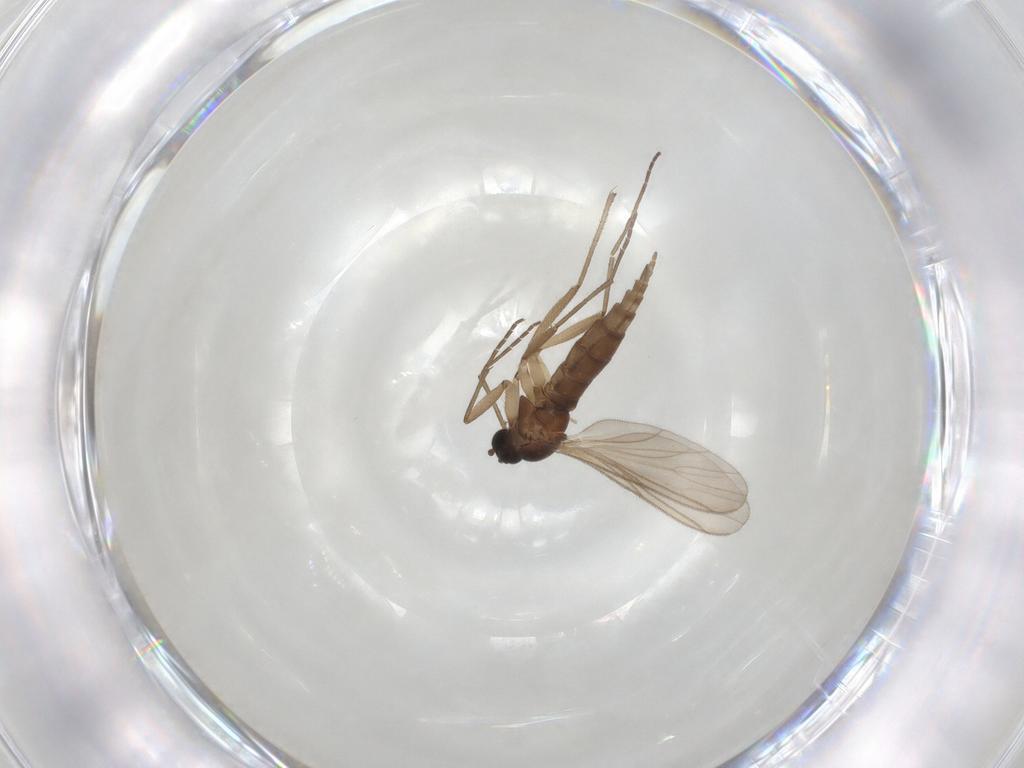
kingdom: Animalia
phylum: Arthropoda
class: Insecta
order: Diptera
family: Sciaridae
